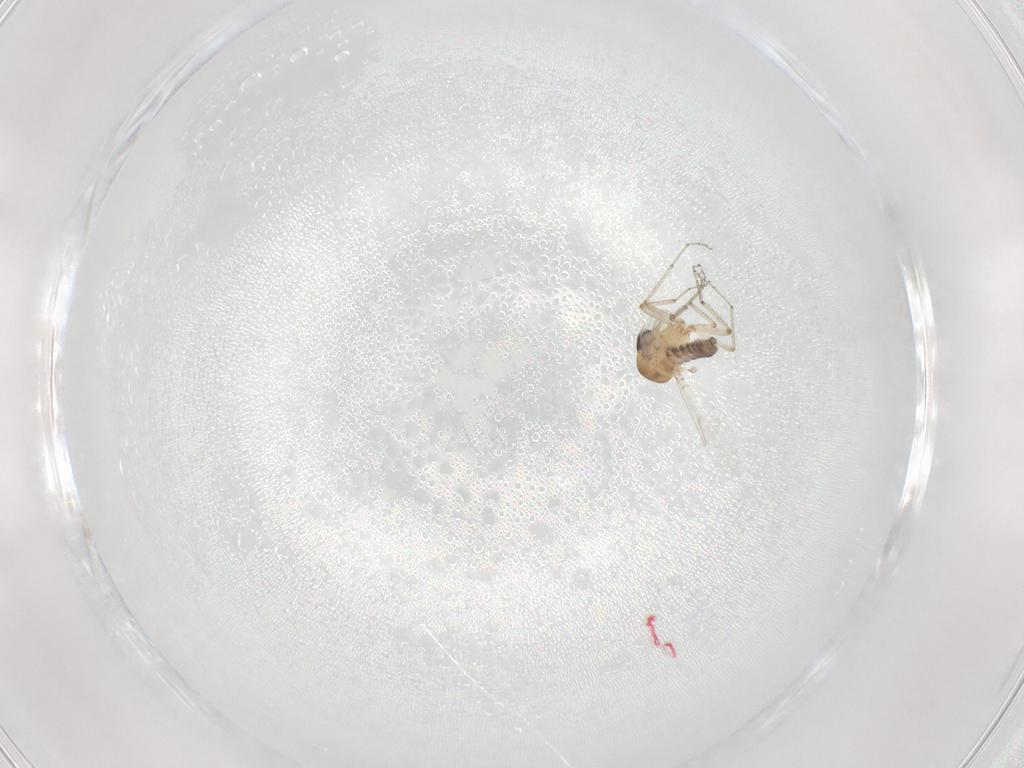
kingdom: Animalia
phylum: Arthropoda
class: Insecta
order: Diptera
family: Ceratopogonidae
